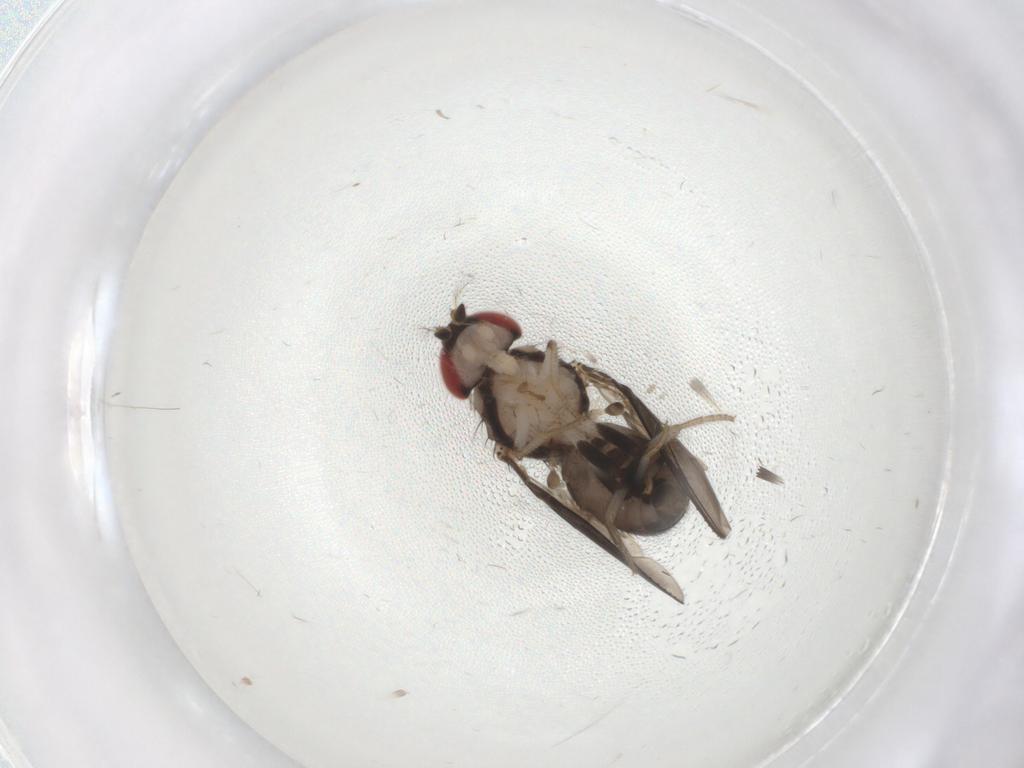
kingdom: Animalia
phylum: Arthropoda
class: Insecta
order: Diptera
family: Drosophilidae
